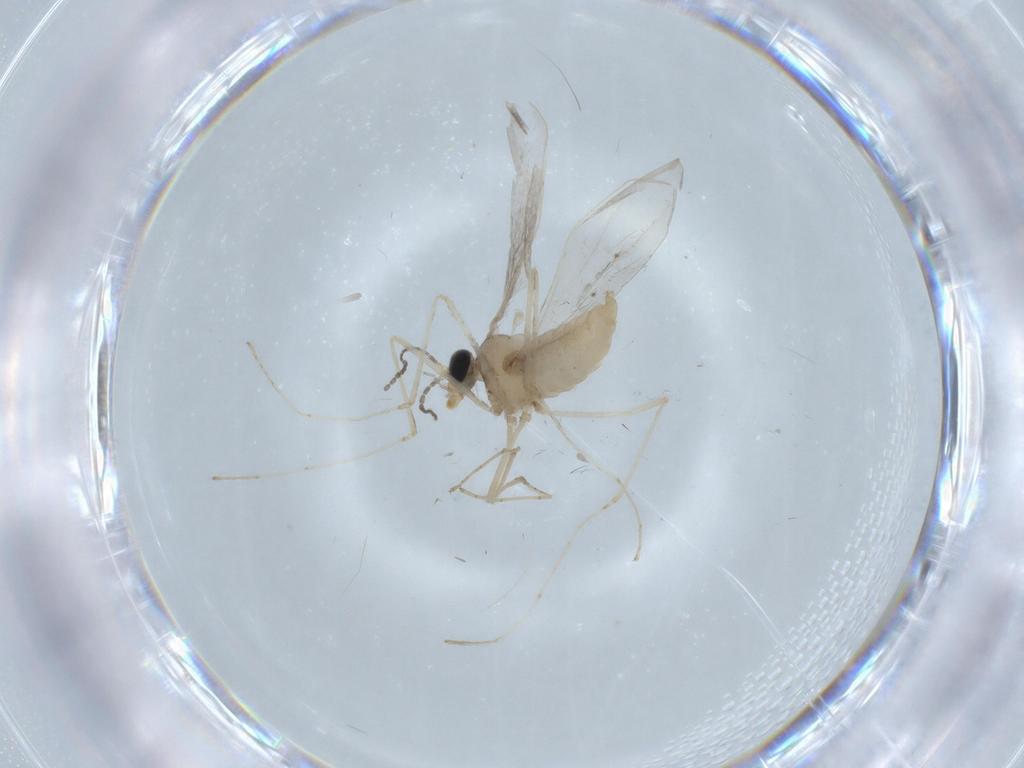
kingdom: Animalia
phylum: Arthropoda
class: Insecta
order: Diptera
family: Cecidomyiidae
